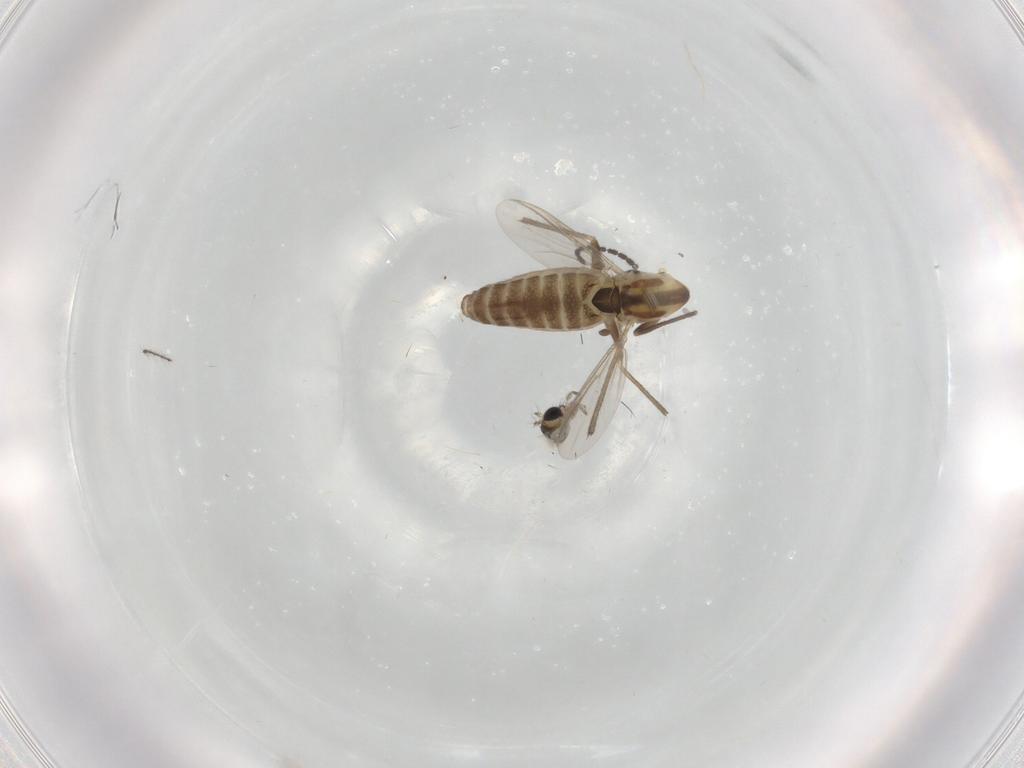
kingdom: Animalia
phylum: Arthropoda
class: Insecta
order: Diptera
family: Chironomidae
